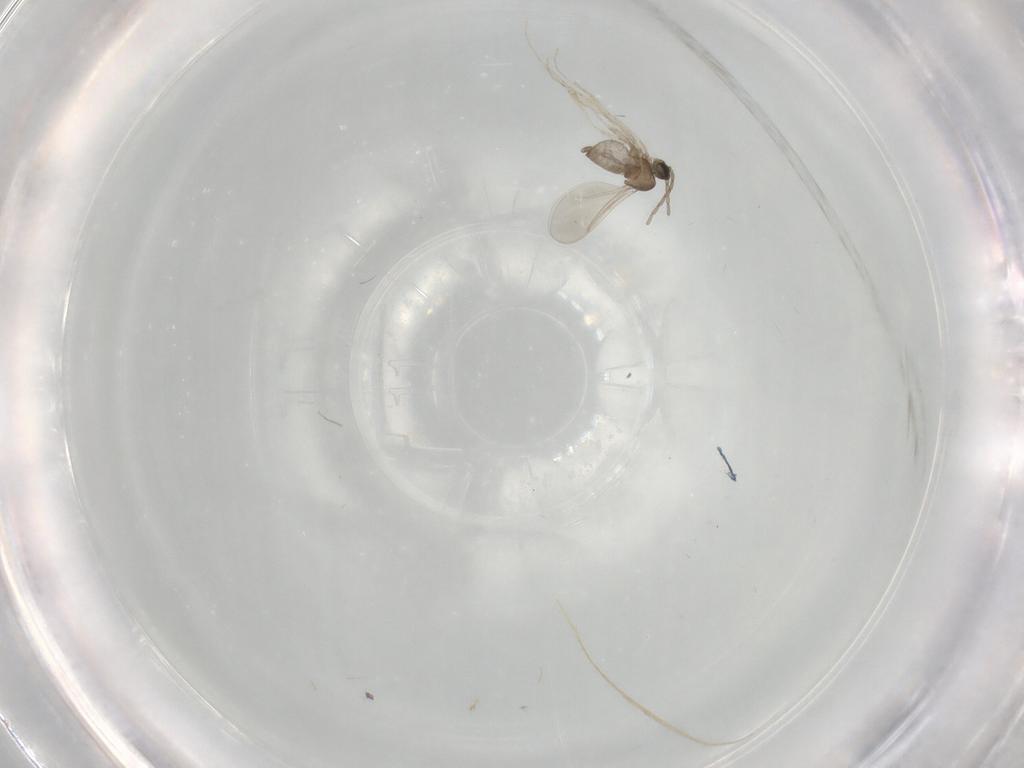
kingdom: Animalia
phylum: Arthropoda
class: Insecta
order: Diptera
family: Cecidomyiidae
